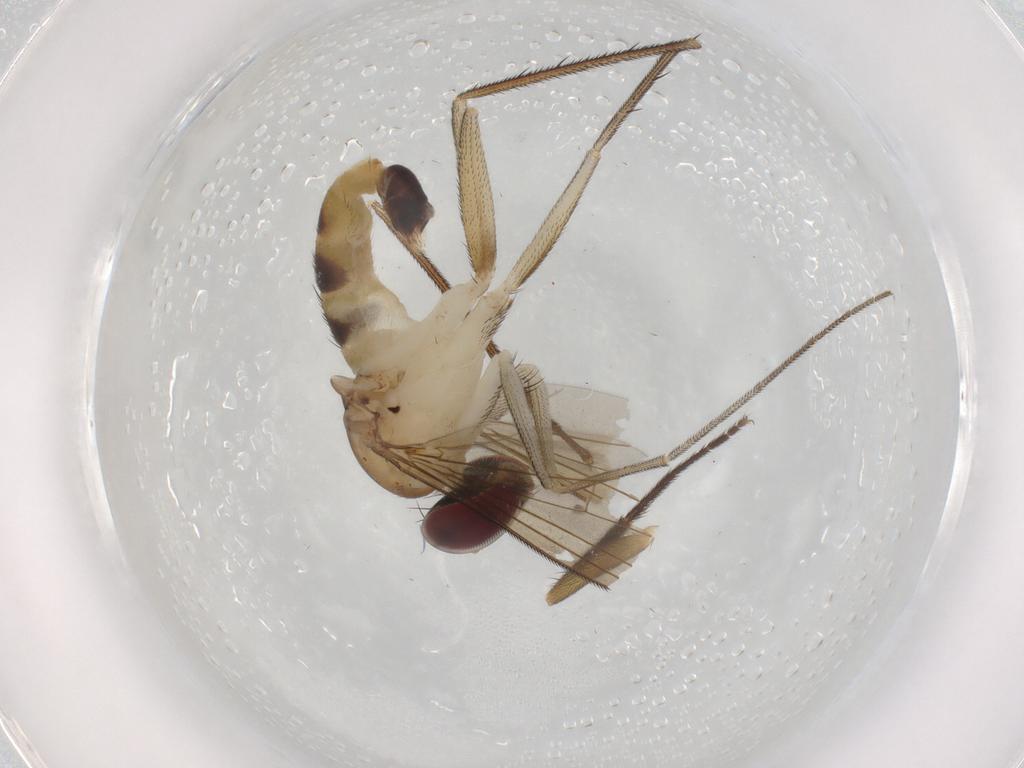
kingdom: Animalia
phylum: Arthropoda
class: Insecta
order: Diptera
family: Dolichopodidae
